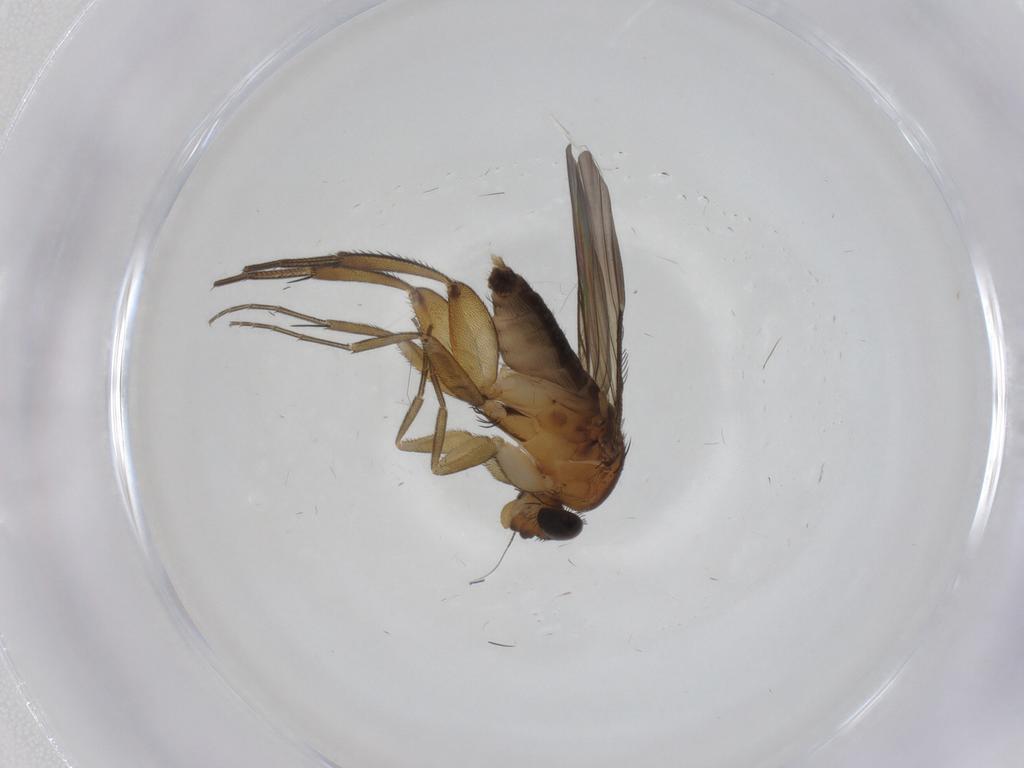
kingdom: Animalia
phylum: Arthropoda
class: Insecta
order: Diptera
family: Phoridae
